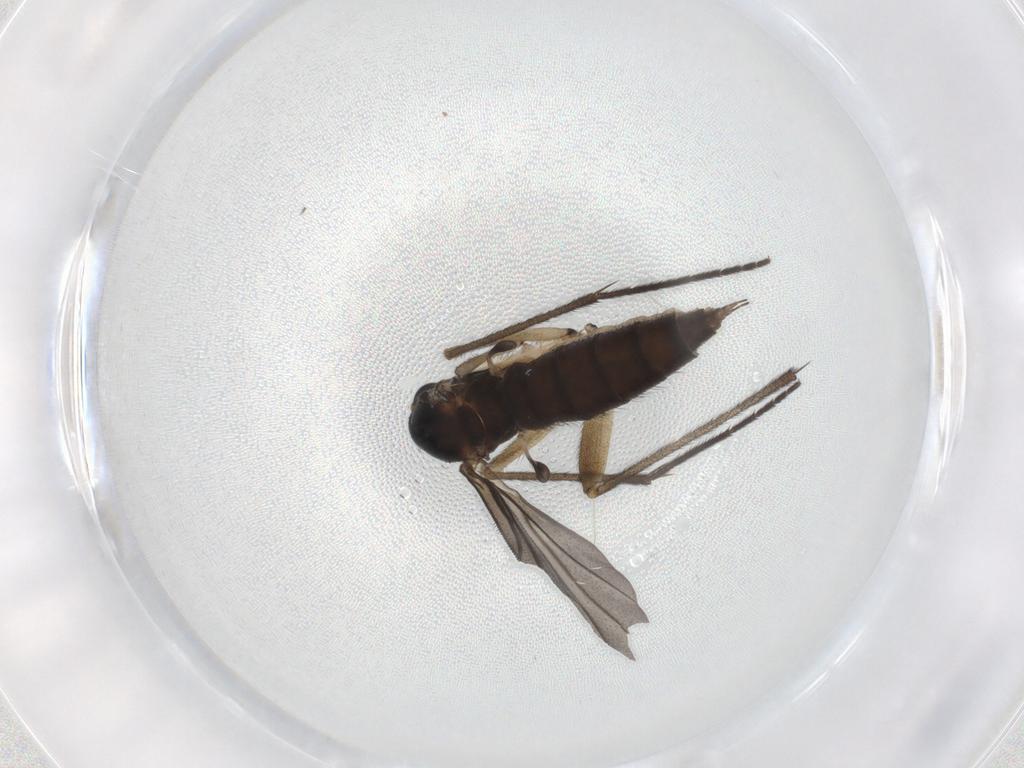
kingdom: Animalia
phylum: Arthropoda
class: Insecta
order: Diptera
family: Sciaridae
